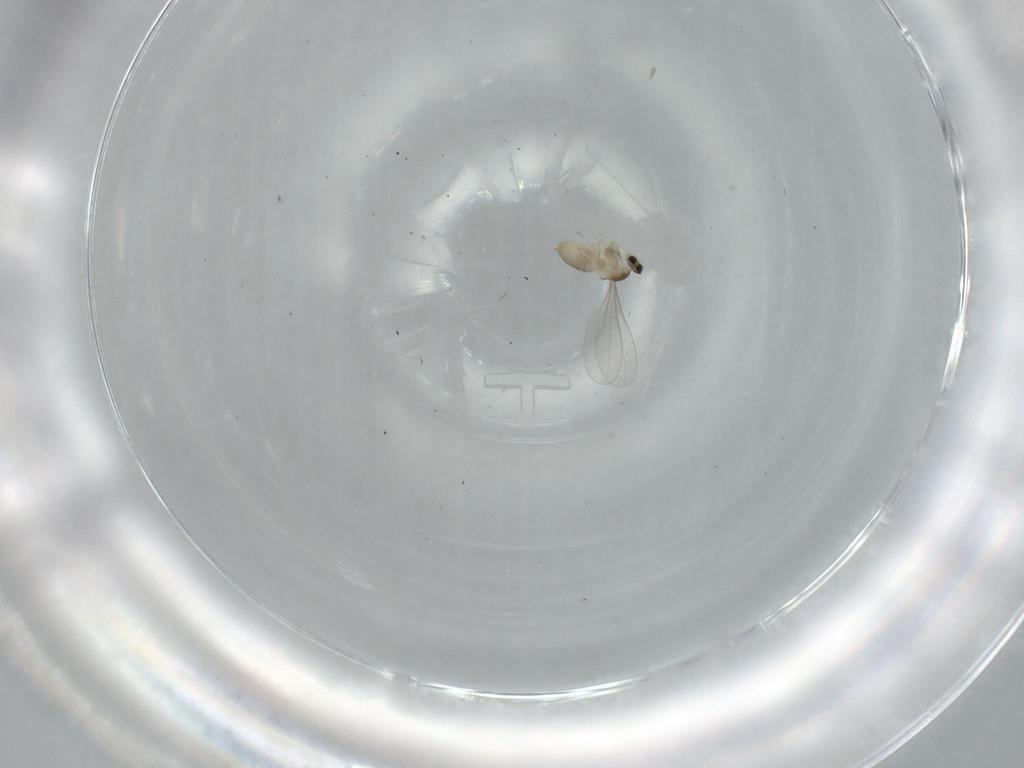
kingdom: Animalia
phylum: Arthropoda
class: Insecta
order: Diptera
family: Cecidomyiidae
